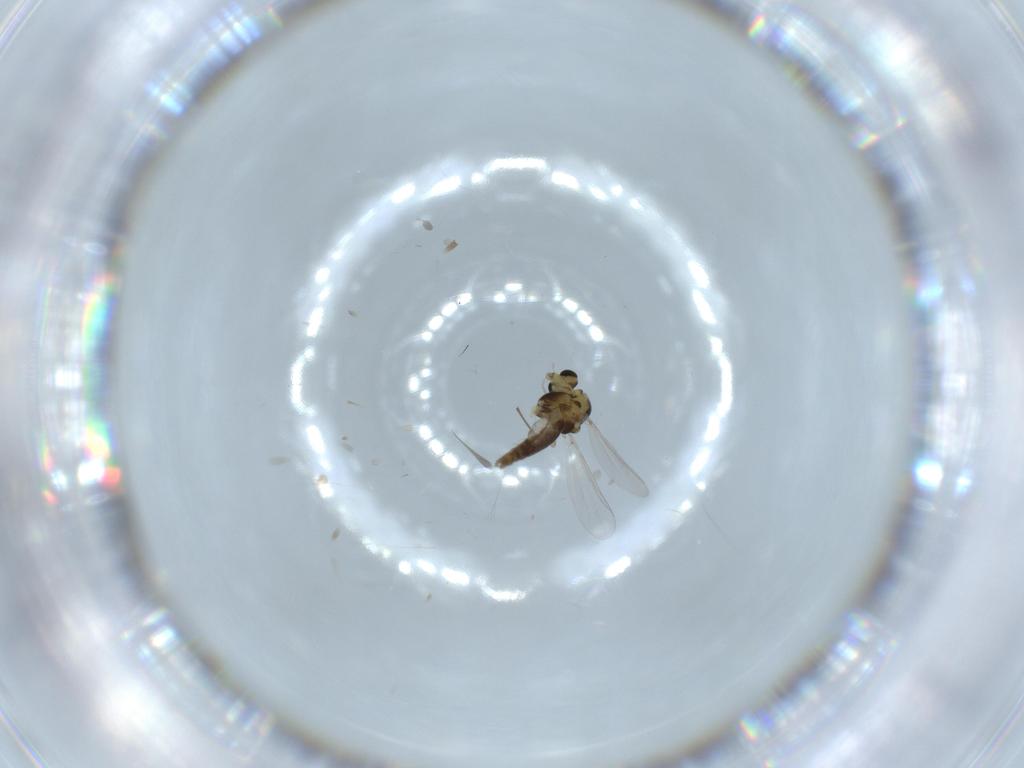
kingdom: Animalia
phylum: Arthropoda
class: Insecta
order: Diptera
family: Chironomidae
